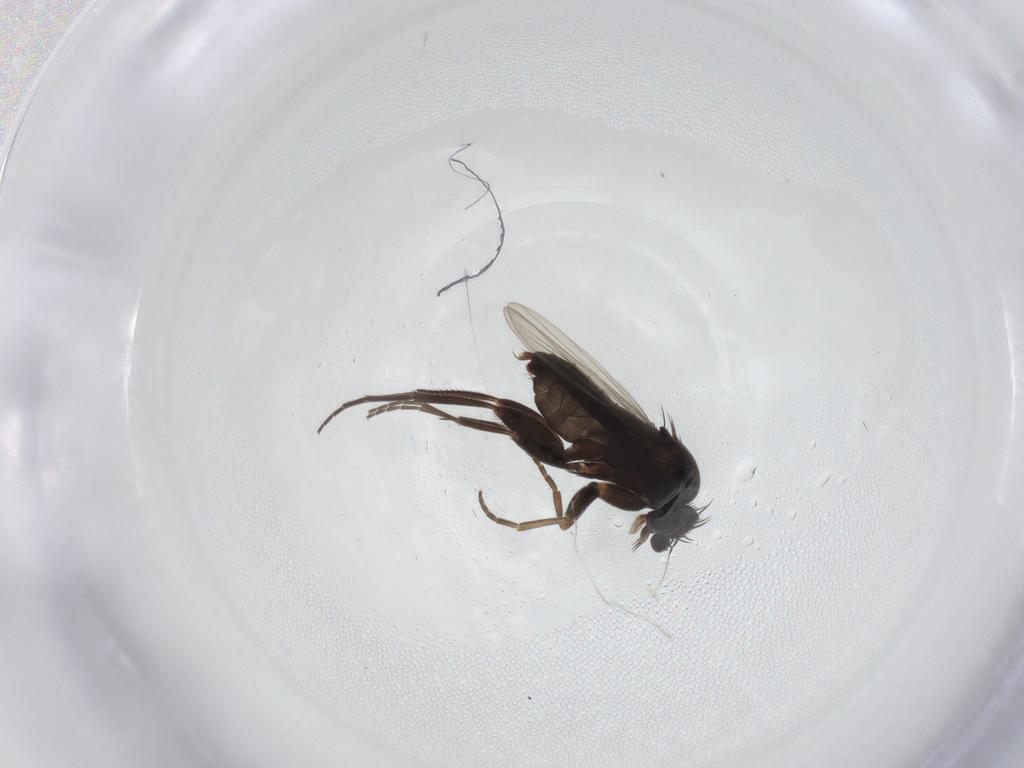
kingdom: Animalia
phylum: Arthropoda
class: Insecta
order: Diptera
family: Phoridae
